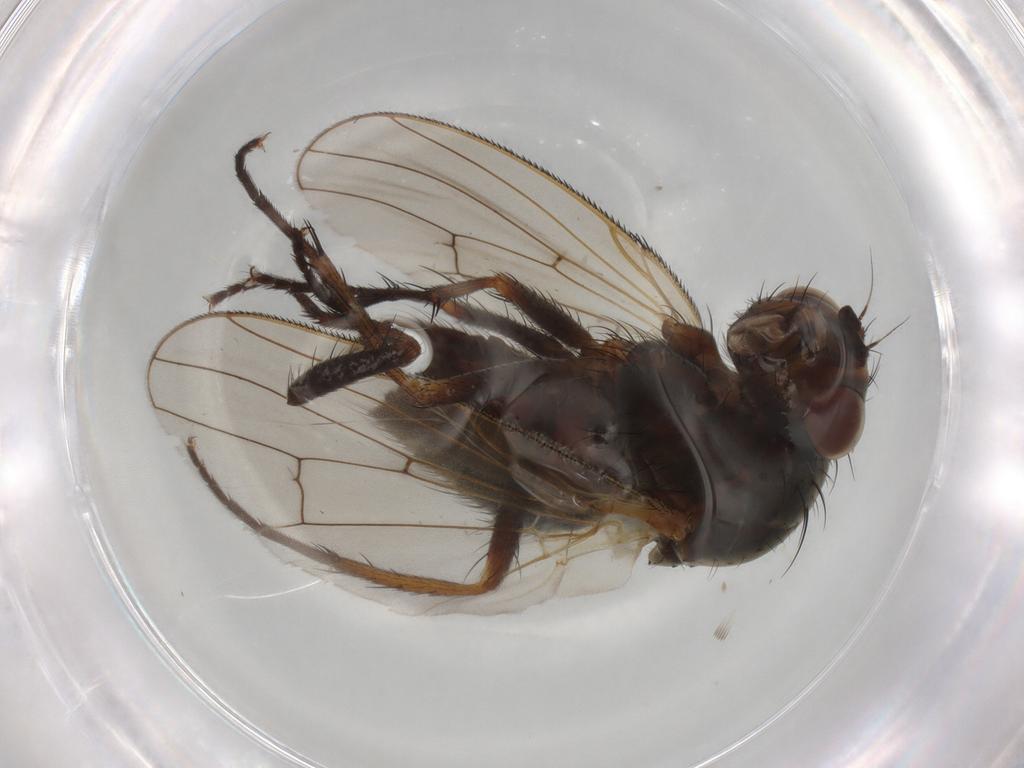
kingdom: Animalia
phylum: Arthropoda
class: Insecta
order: Diptera
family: Anthomyiidae
